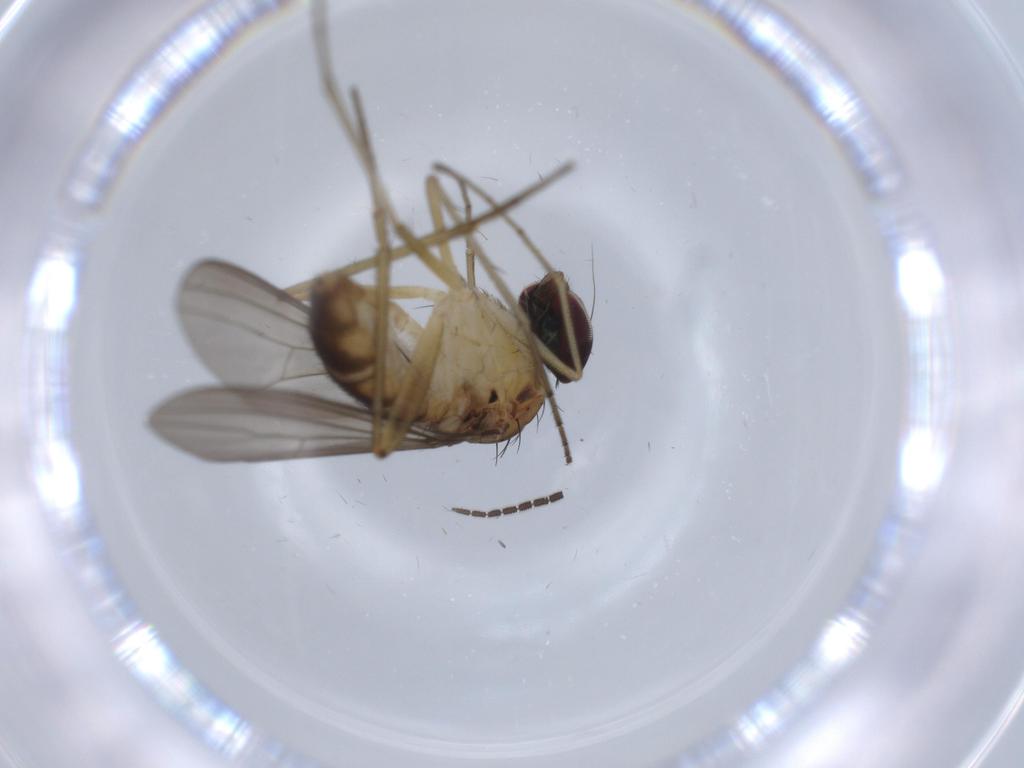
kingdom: Animalia
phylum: Arthropoda
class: Insecta
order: Diptera
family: Dolichopodidae
